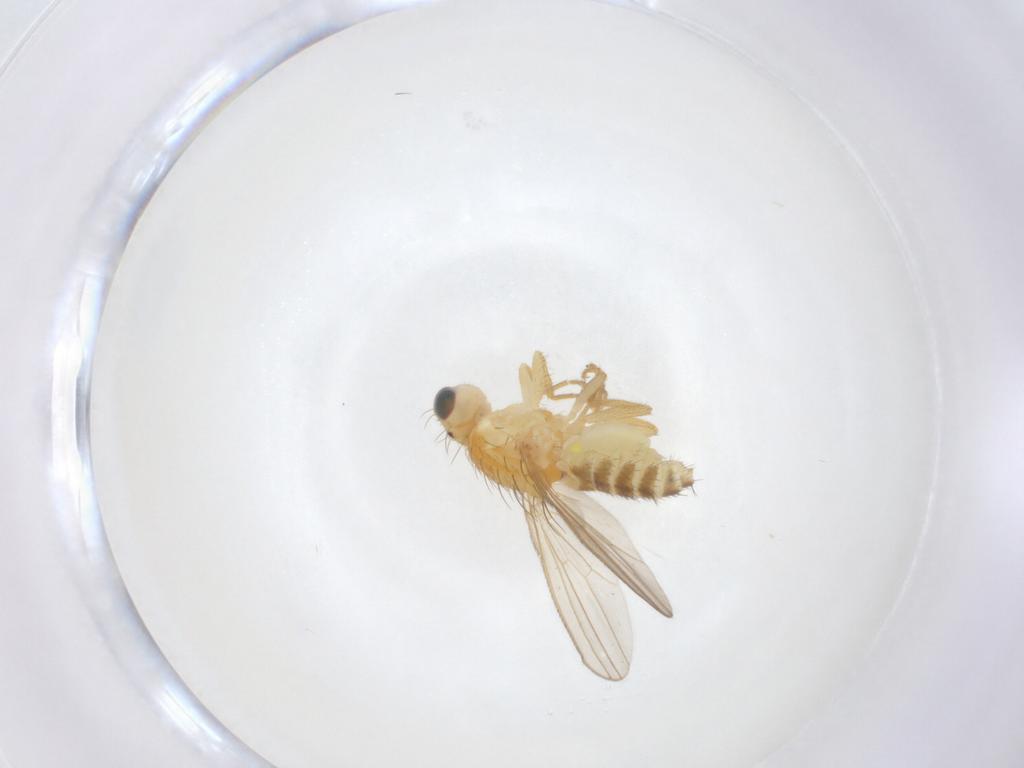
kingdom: Animalia
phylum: Arthropoda
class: Insecta
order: Diptera
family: Chyromyidae
